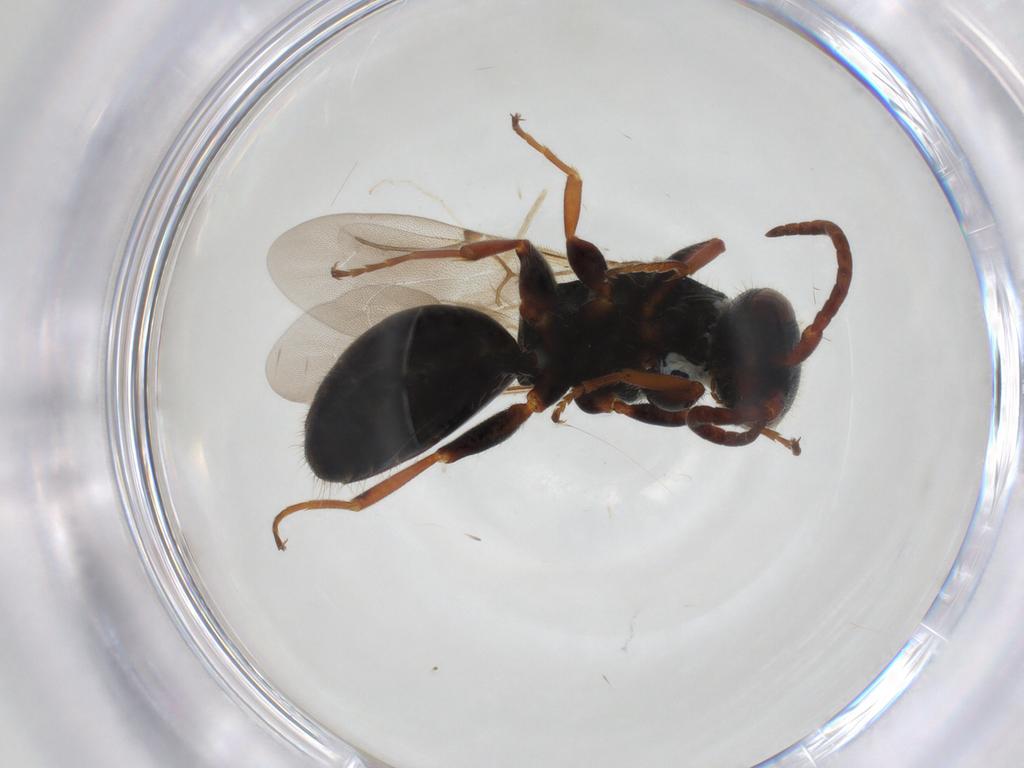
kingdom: Animalia
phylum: Arthropoda
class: Insecta
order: Hymenoptera
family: Bethylidae
